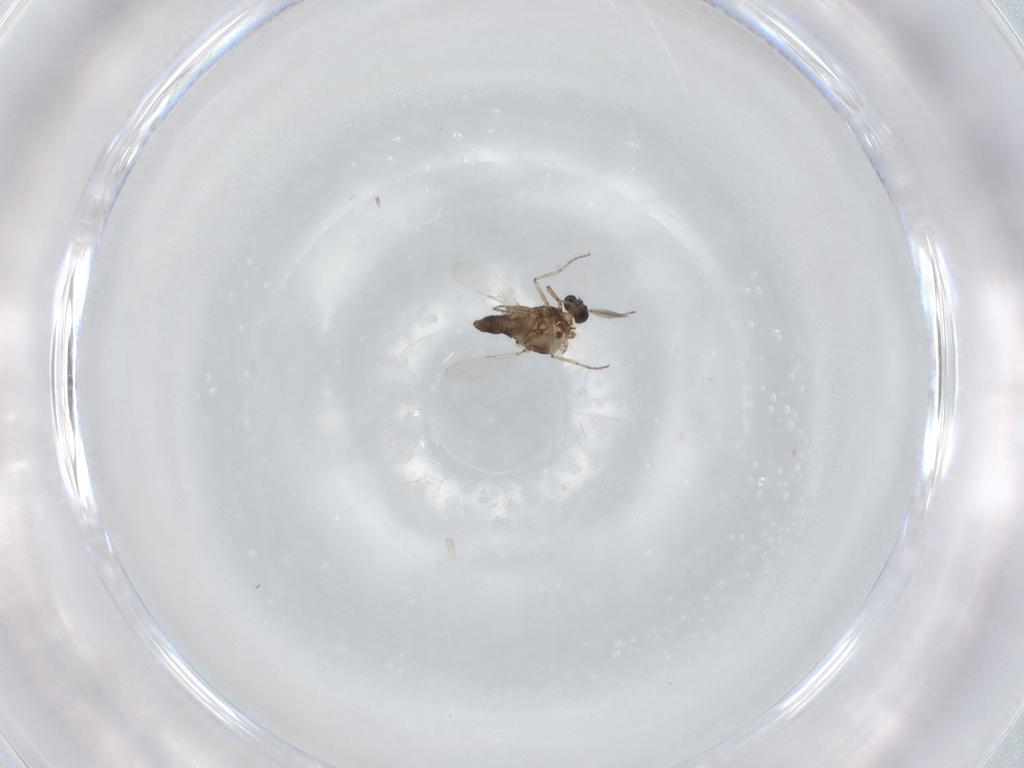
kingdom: Animalia
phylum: Arthropoda
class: Insecta
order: Diptera
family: Ceratopogonidae
